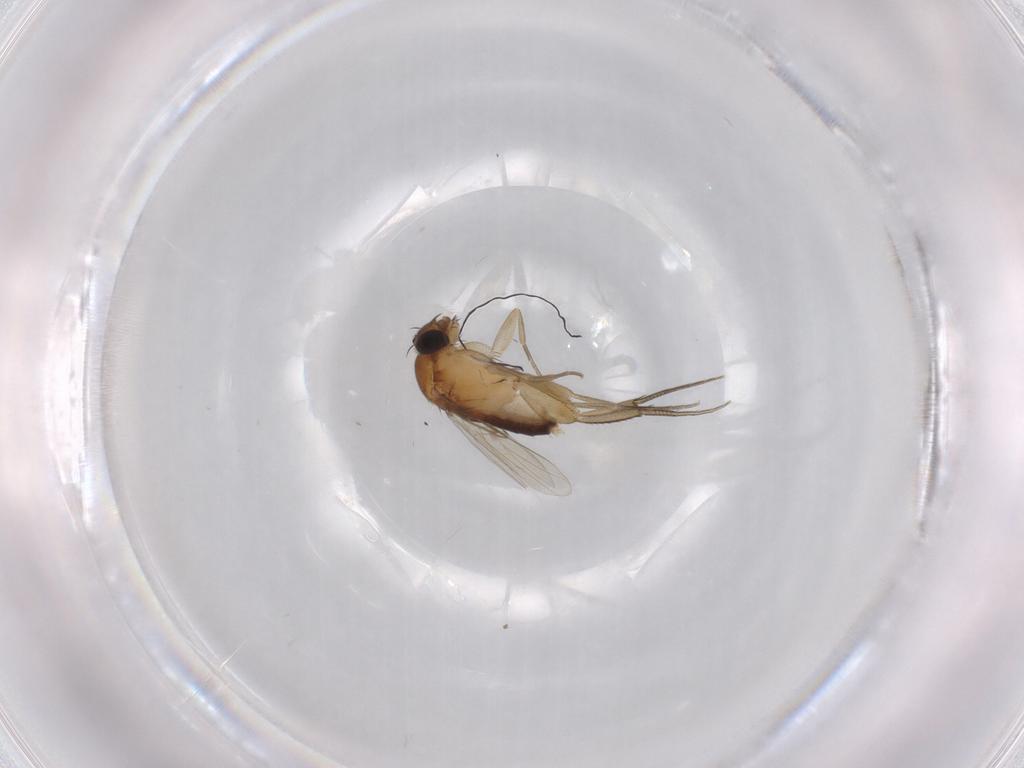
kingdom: Animalia
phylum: Arthropoda
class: Insecta
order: Diptera
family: Phoridae
